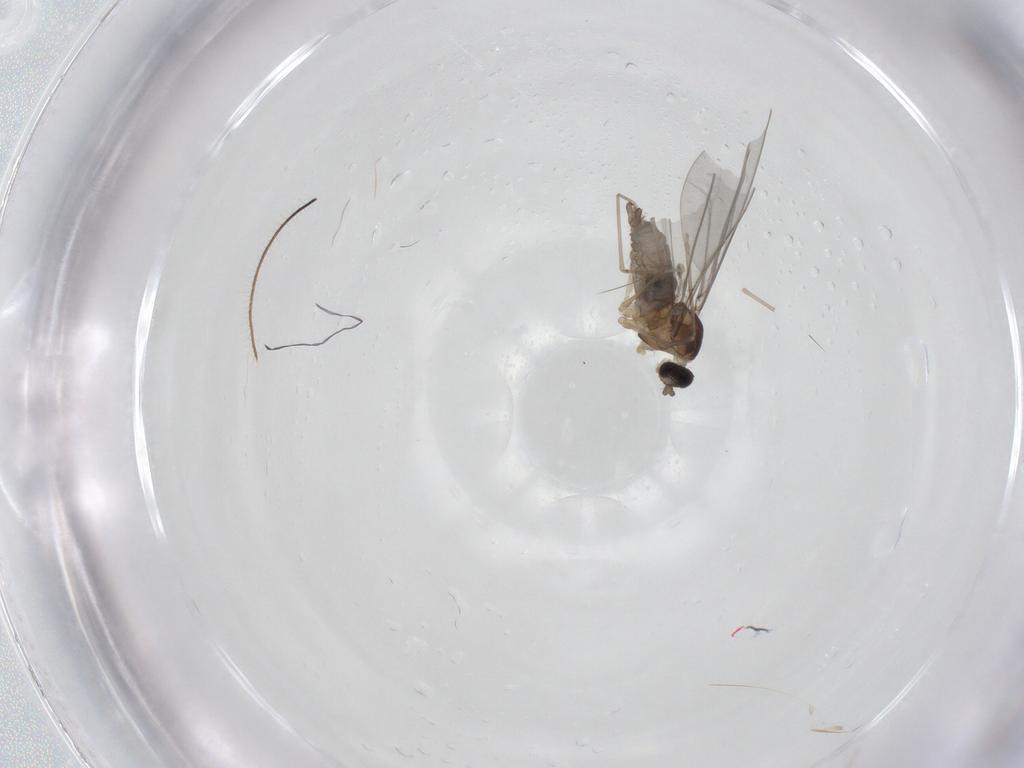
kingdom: Animalia
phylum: Arthropoda
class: Insecta
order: Diptera
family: Cecidomyiidae
